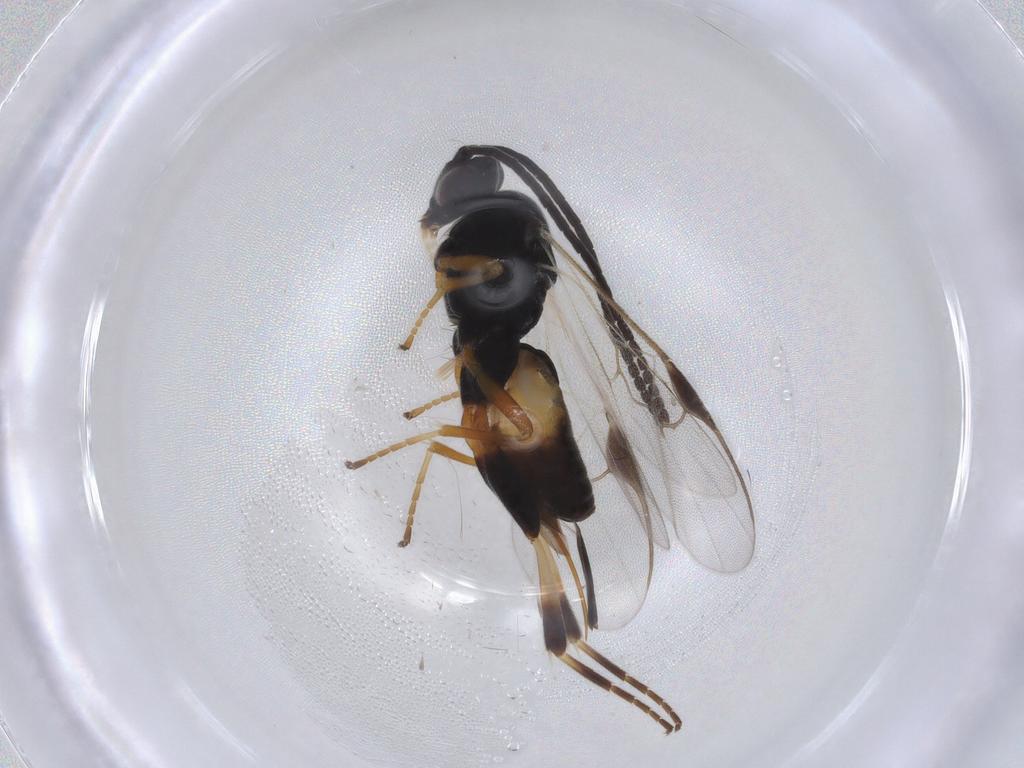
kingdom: Animalia
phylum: Arthropoda
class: Insecta
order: Hymenoptera
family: Braconidae
